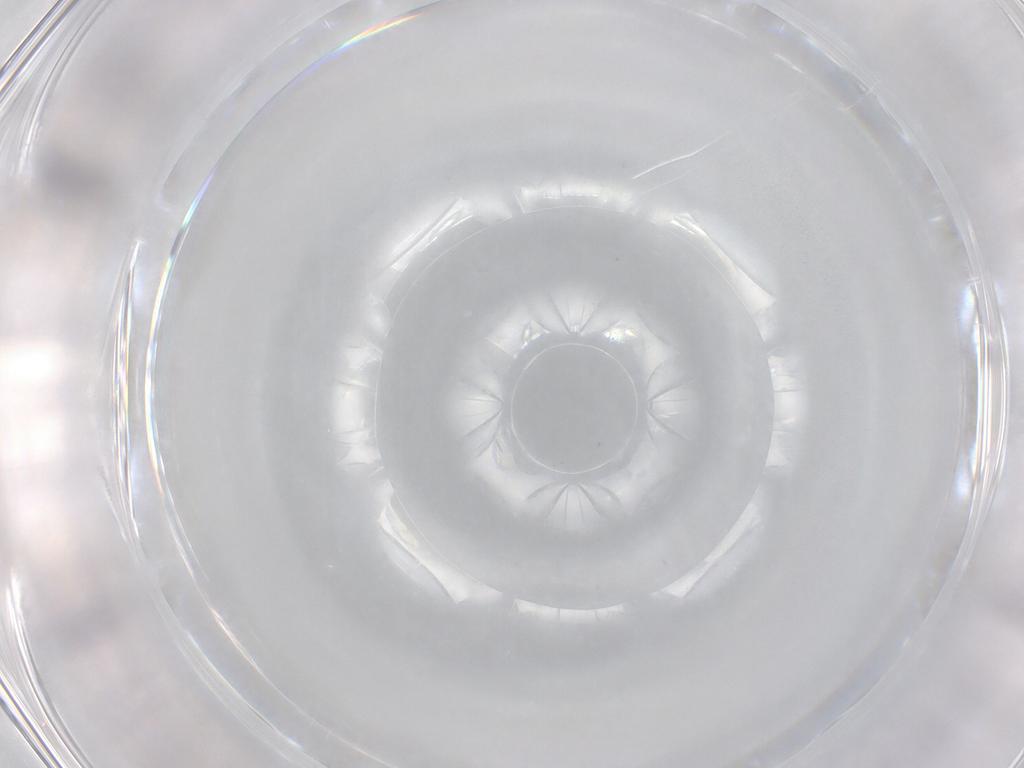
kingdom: Animalia
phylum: Arthropoda
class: Insecta
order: Diptera
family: Syrphidae
